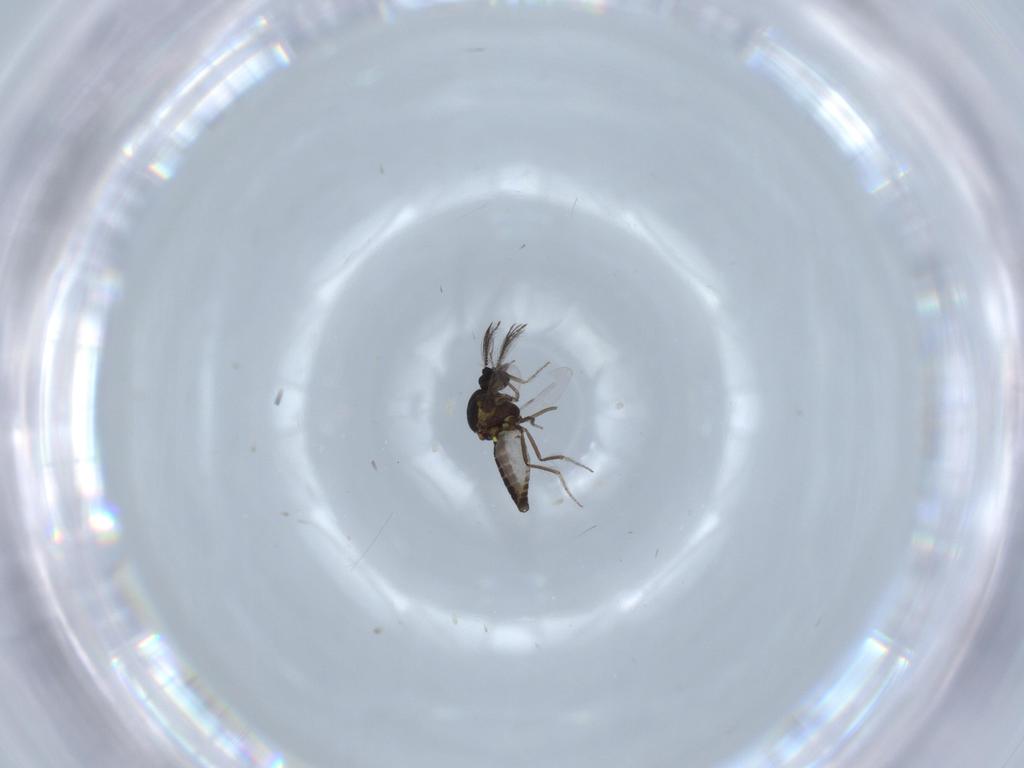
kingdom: Animalia
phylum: Arthropoda
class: Insecta
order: Diptera
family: Ceratopogonidae
